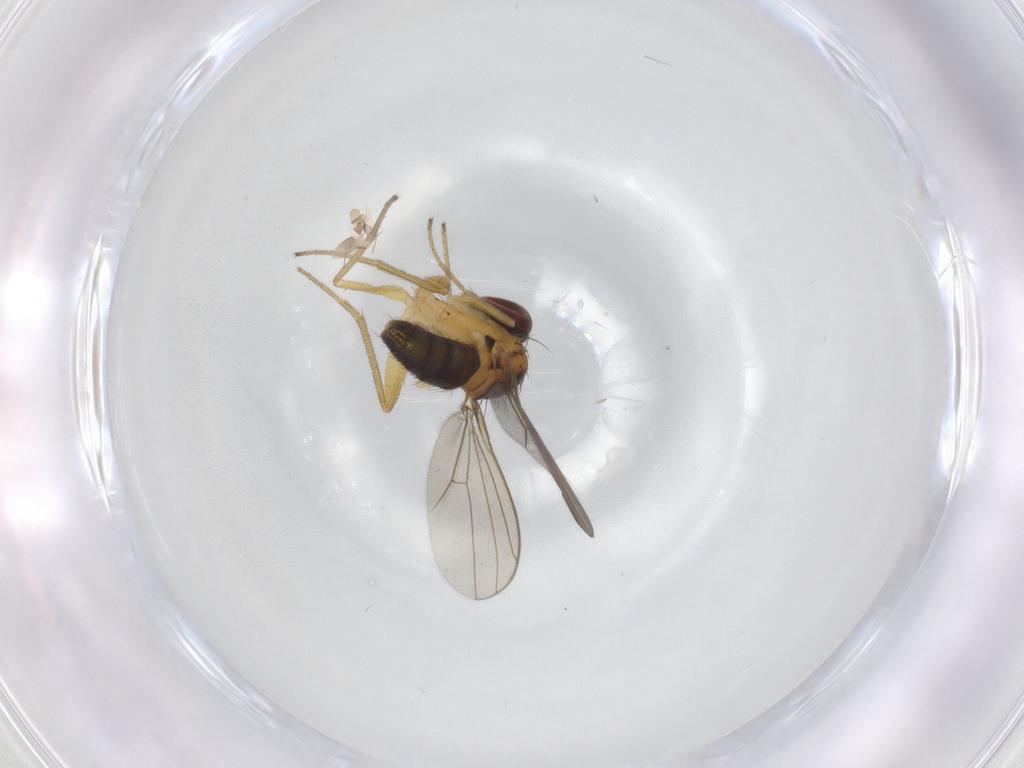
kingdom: Animalia
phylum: Arthropoda
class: Insecta
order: Diptera
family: Dolichopodidae
